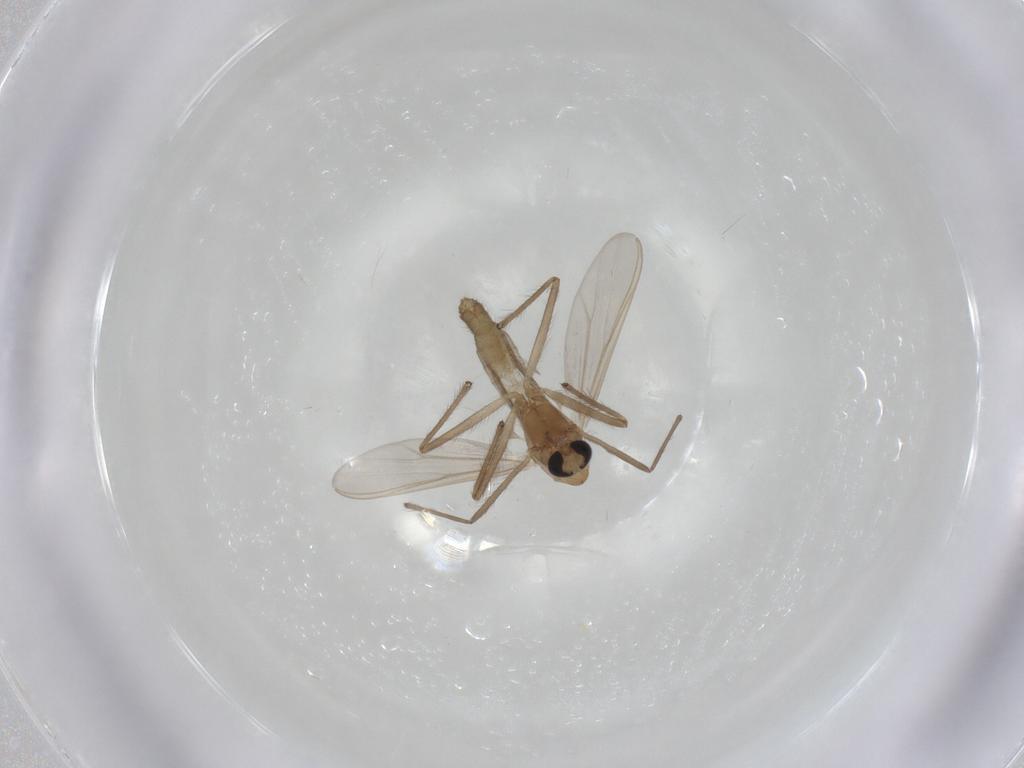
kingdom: Animalia
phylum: Arthropoda
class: Insecta
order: Diptera
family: Chironomidae
